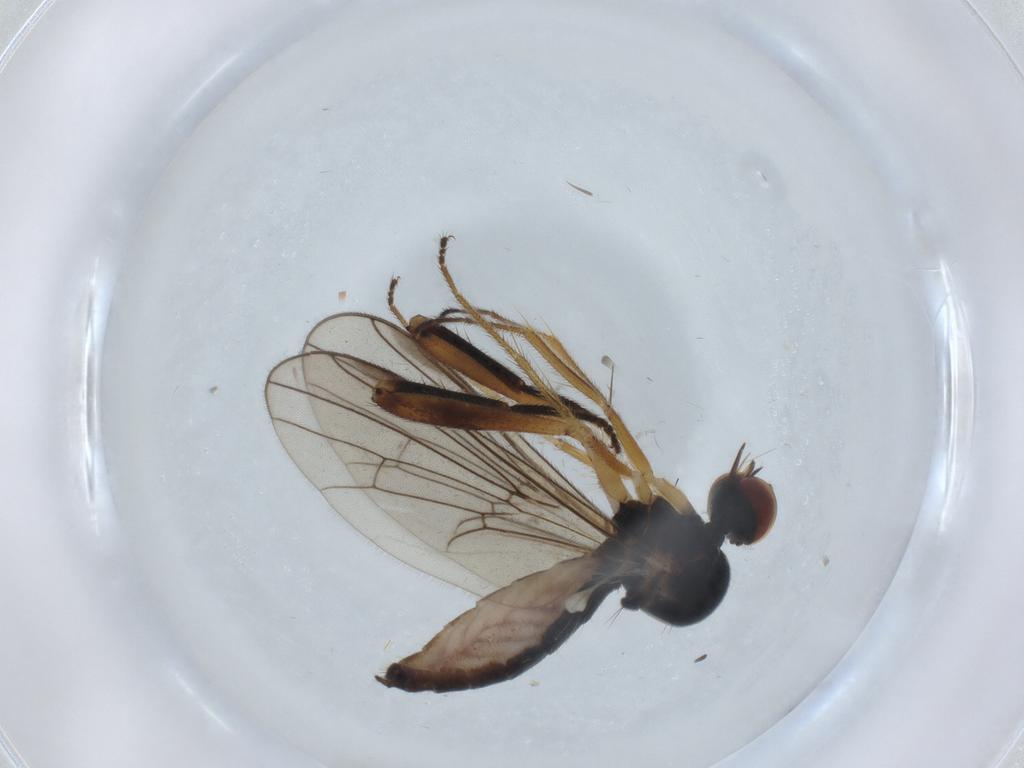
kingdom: Animalia
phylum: Arthropoda
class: Insecta
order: Diptera
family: Hybotidae
